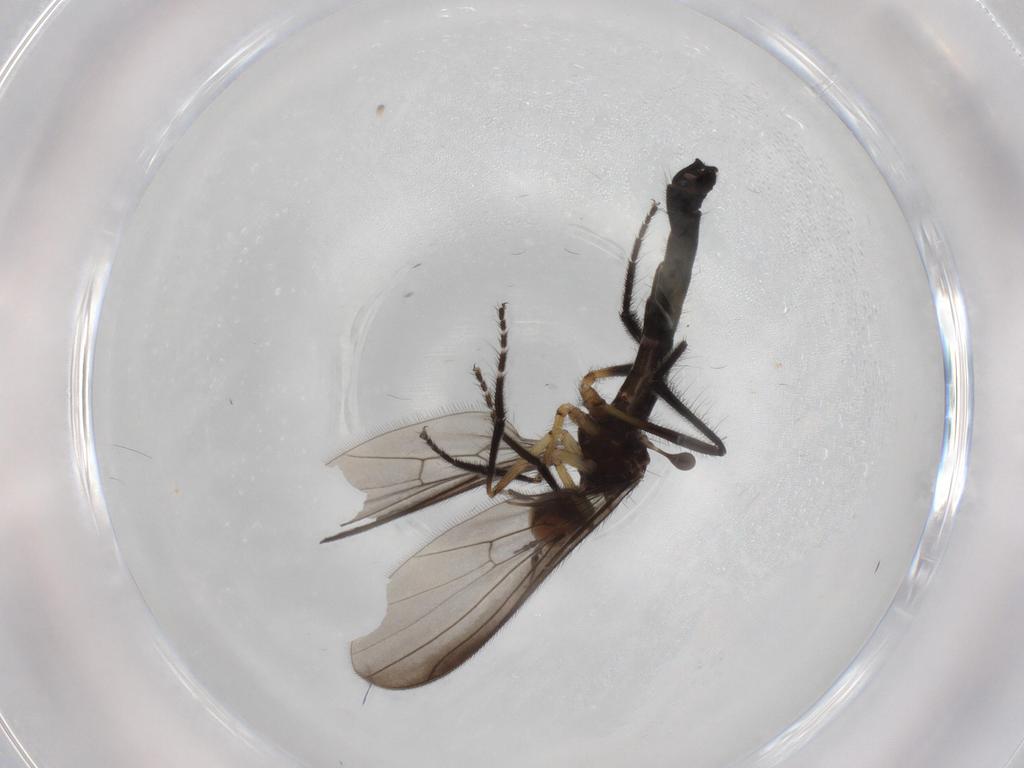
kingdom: Animalia
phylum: Arthropoda
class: Insecta
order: Diptera
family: Empididae
